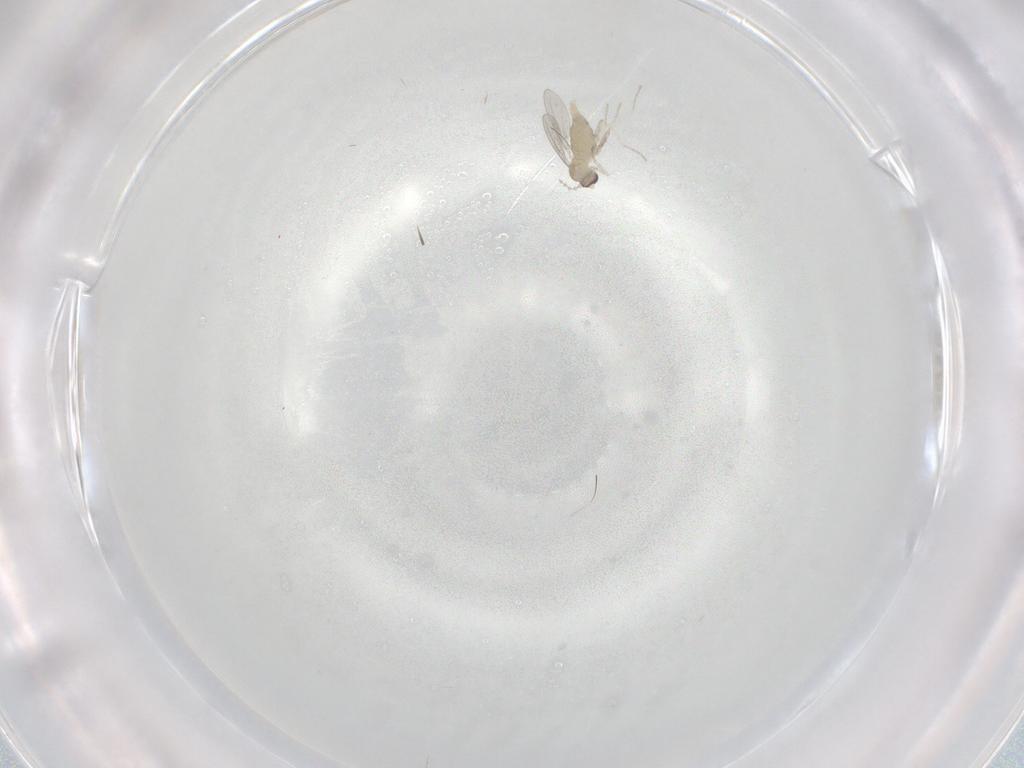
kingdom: Animalia
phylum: Arthropoda
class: Insecta
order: Diptera
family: Cecidomyiidae
